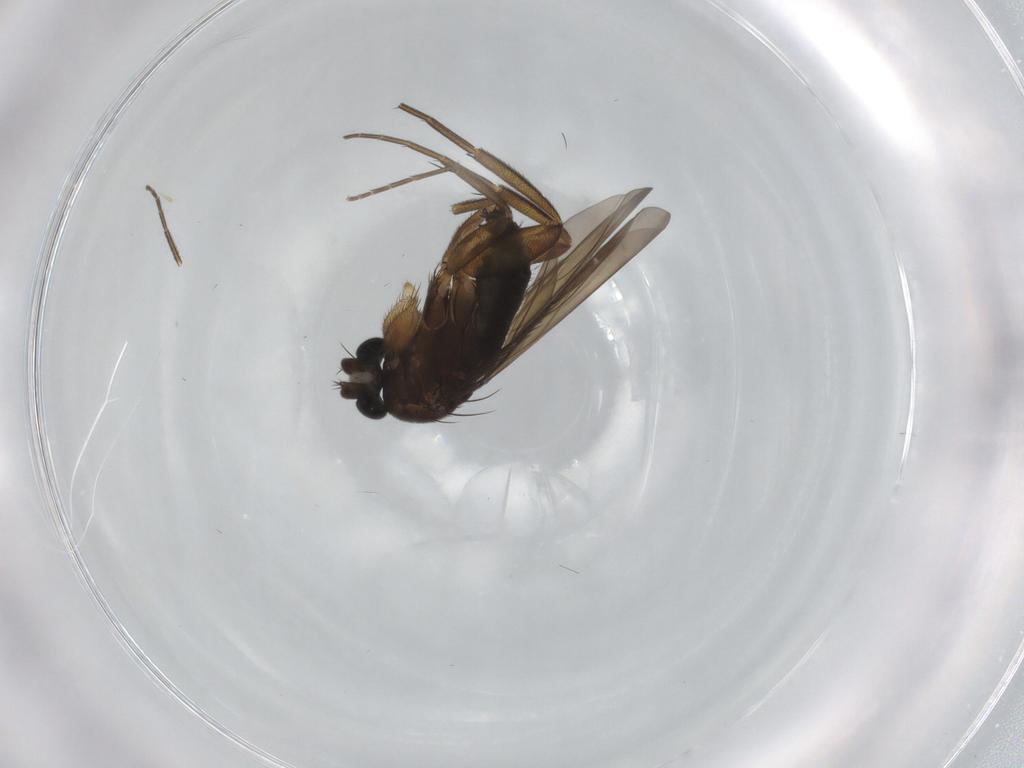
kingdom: Animalia
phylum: Arthropoda
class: Insecta
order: Diptera
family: Phoridae
